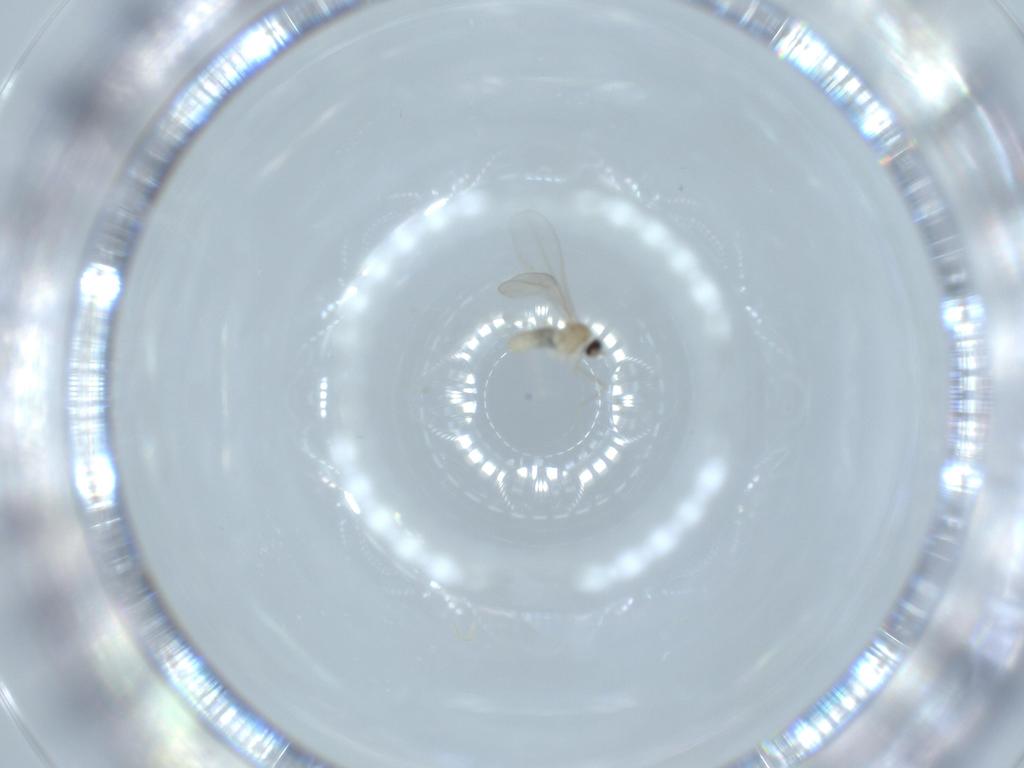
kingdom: Animalia
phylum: Arthropoda
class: Insecta
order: Diptera
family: Cecidomyiidae
